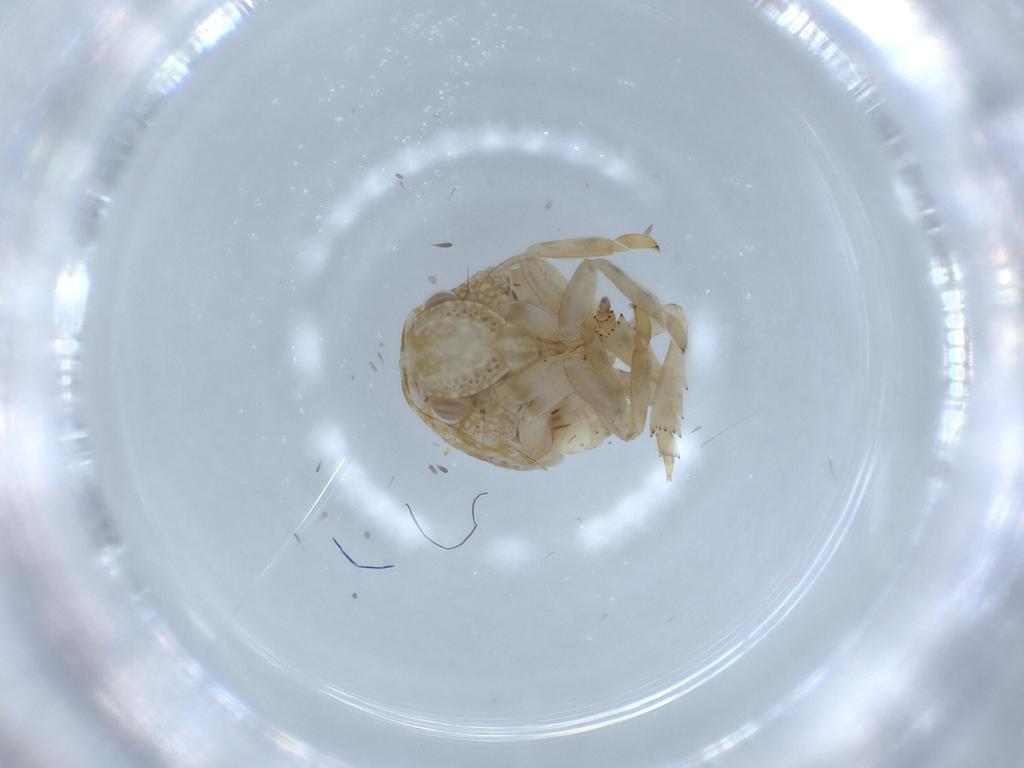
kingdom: Animalia
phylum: Arthropoda
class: Insecta
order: Hemiptera
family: Acanaloniidae
